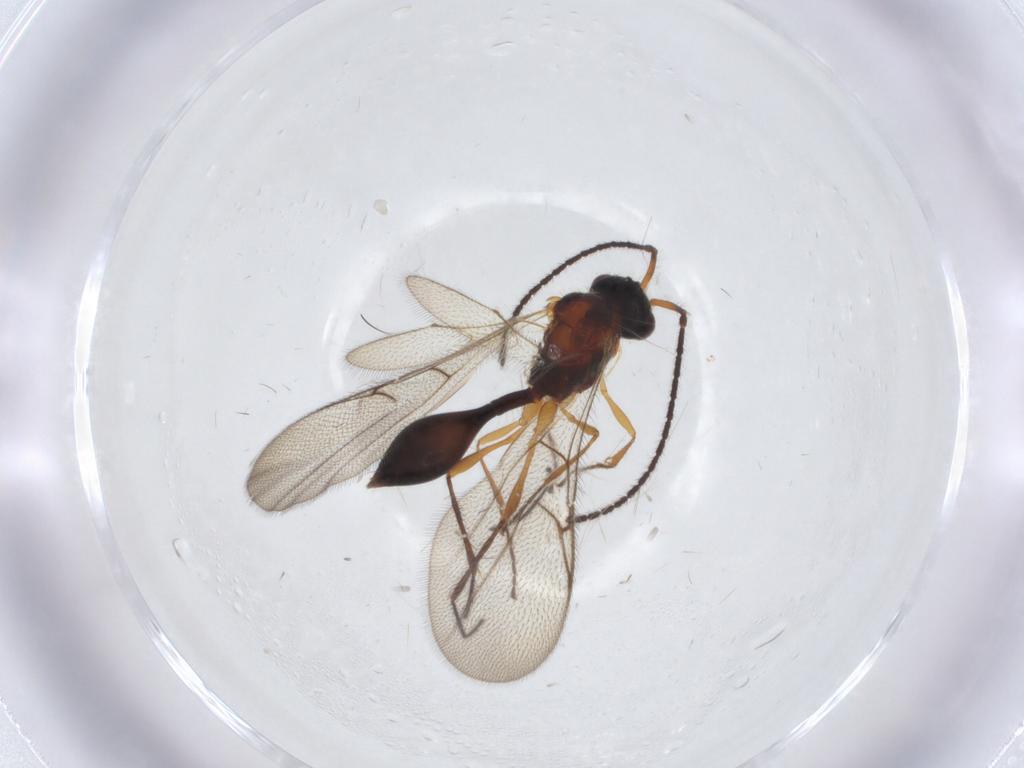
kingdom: Animalia
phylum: Arthropoda
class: Insecta
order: Hymenoptera
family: Diapriidae
